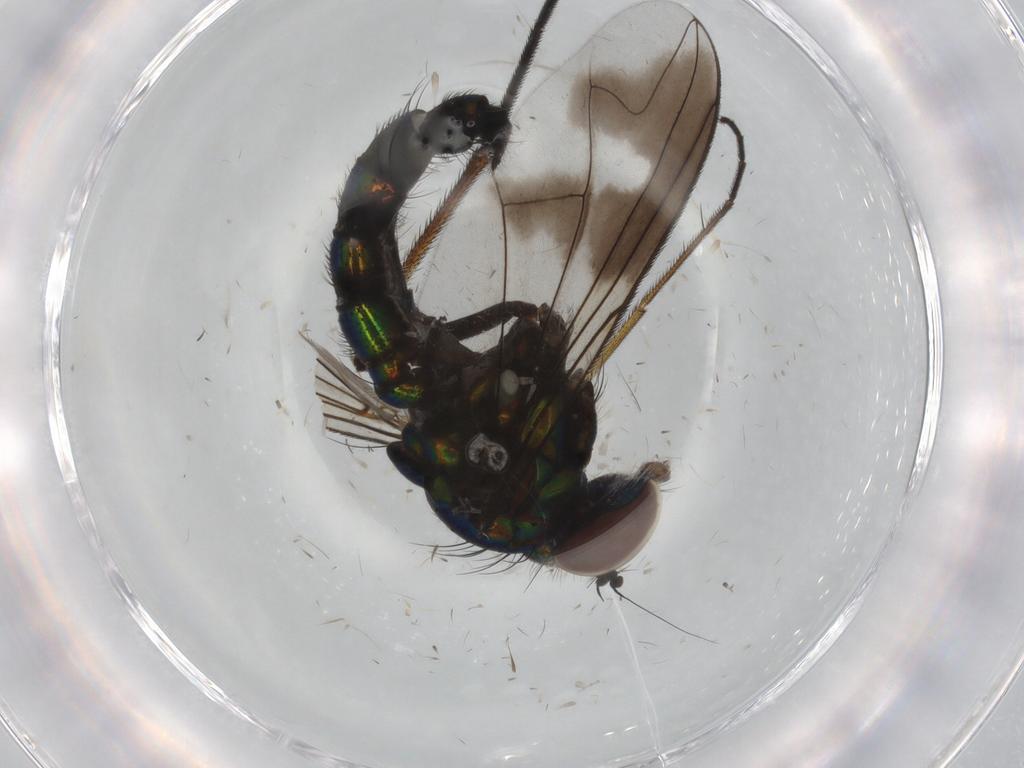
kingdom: Animalia
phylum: Arthropoda
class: Insecta
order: Diptera
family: Dolichopodidae
